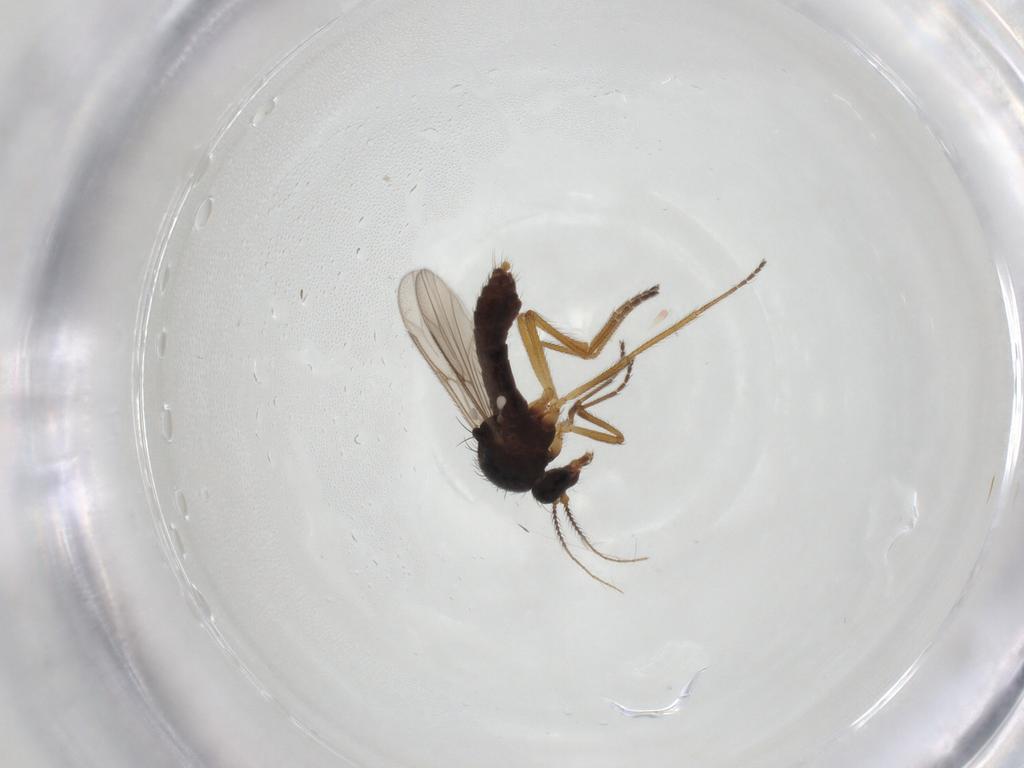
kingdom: Animalia
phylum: Arthropoda
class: Insecta
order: Diptera
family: Ceratopogonidae
